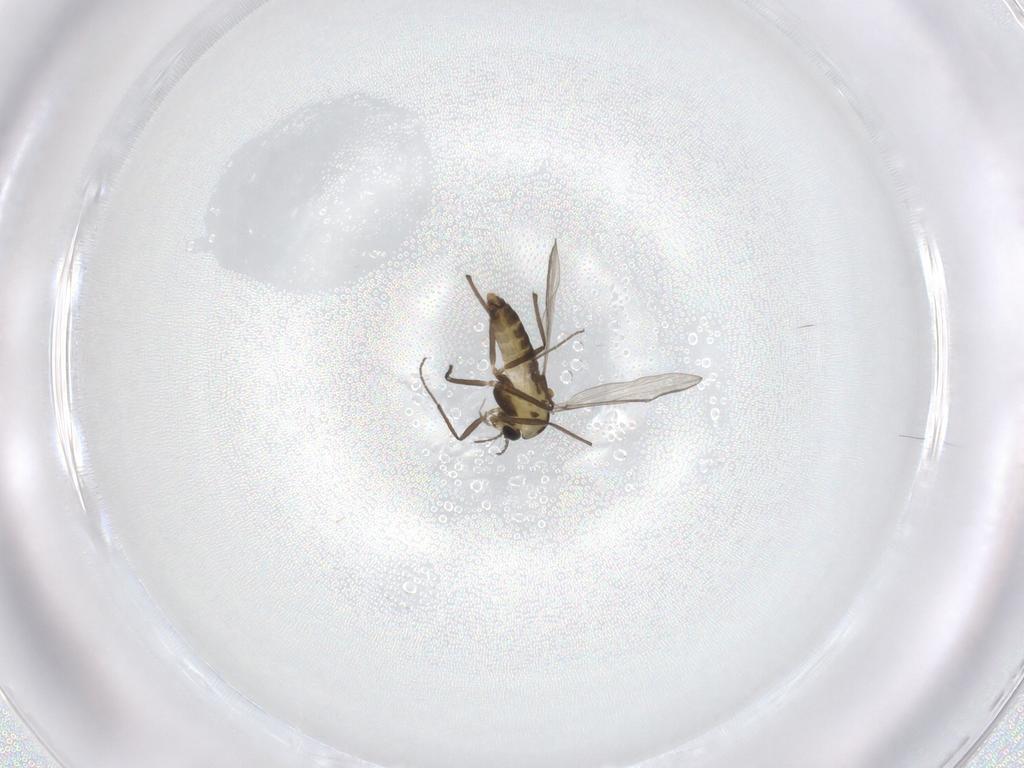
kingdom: Animalia
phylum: Arthropoda
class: Insecta
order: Diptera
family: Chironomidae
